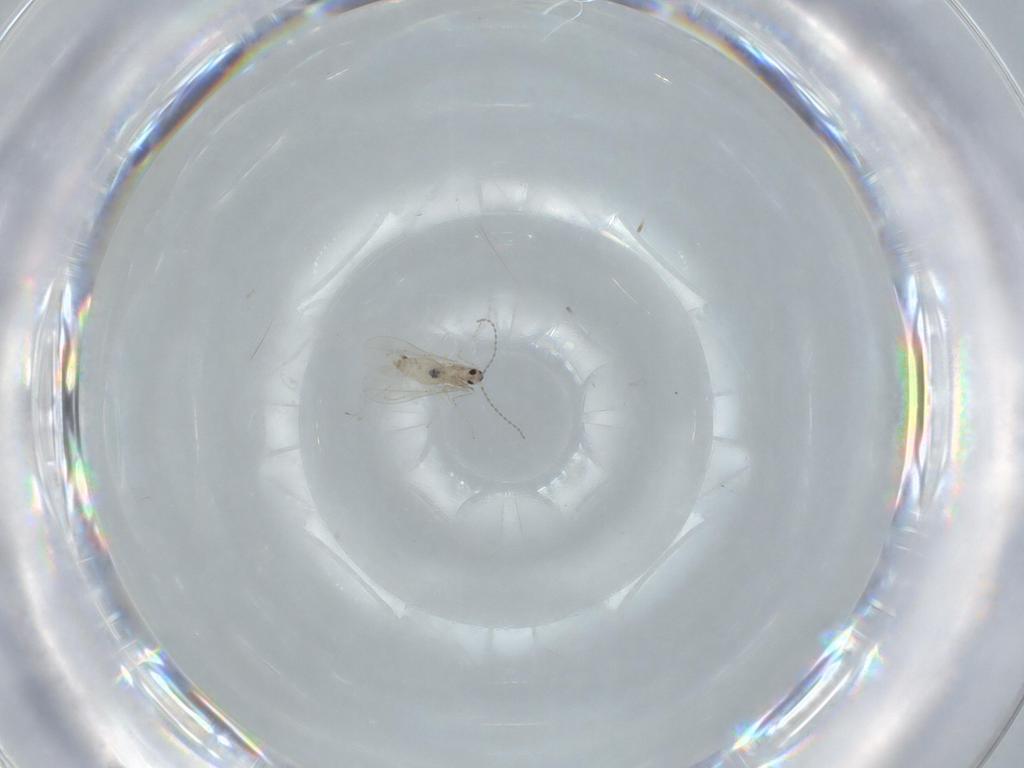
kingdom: Animalia
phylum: Arthropoda
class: Insecta
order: Diptera
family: Cecidomyiidae
